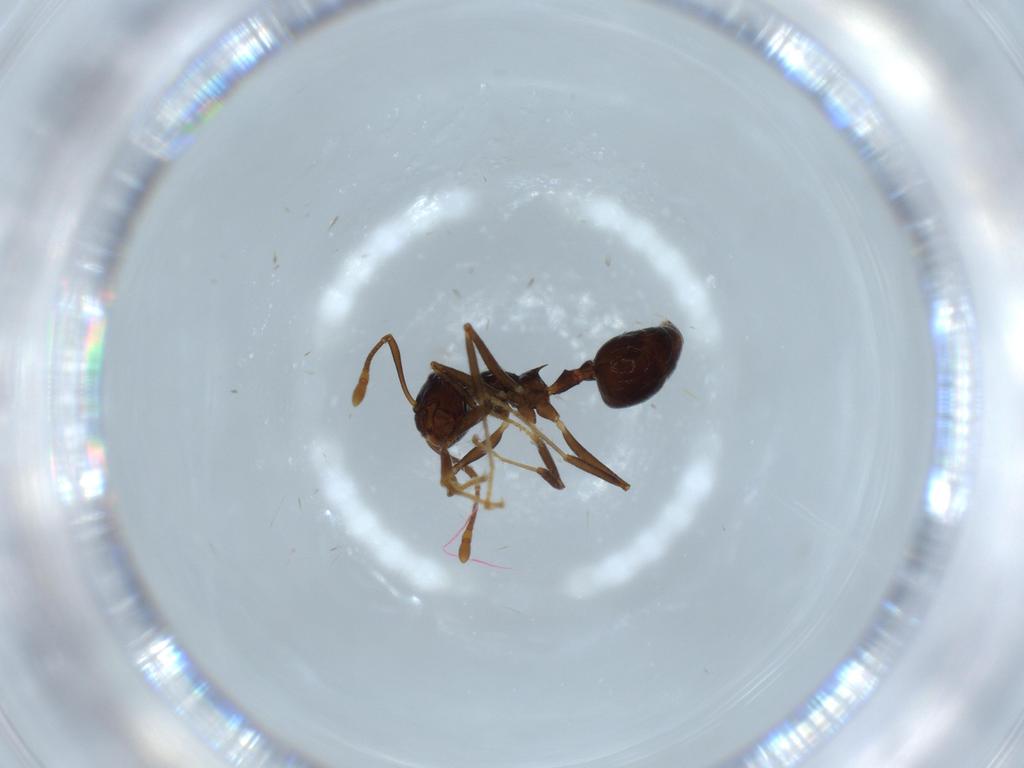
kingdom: Animalia
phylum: Arthropoda
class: Insecta
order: Hymenoptera
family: Formicidae
